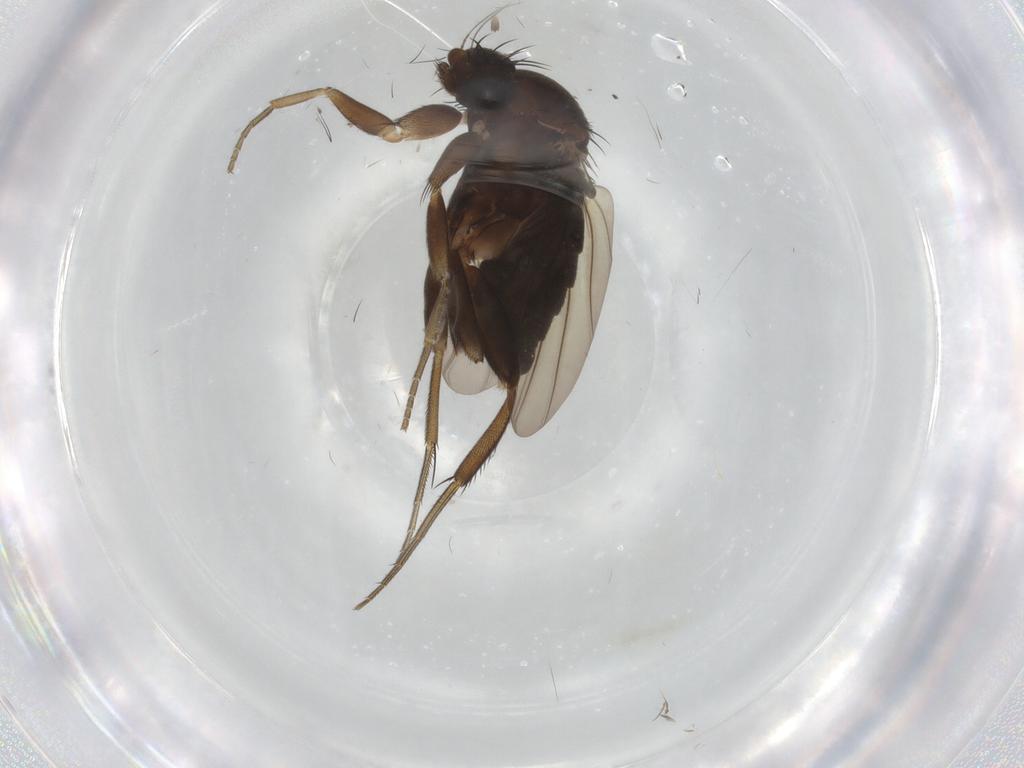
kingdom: Animalia
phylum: Arthropoda
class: Insecta
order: Diptera
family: Phoridae
